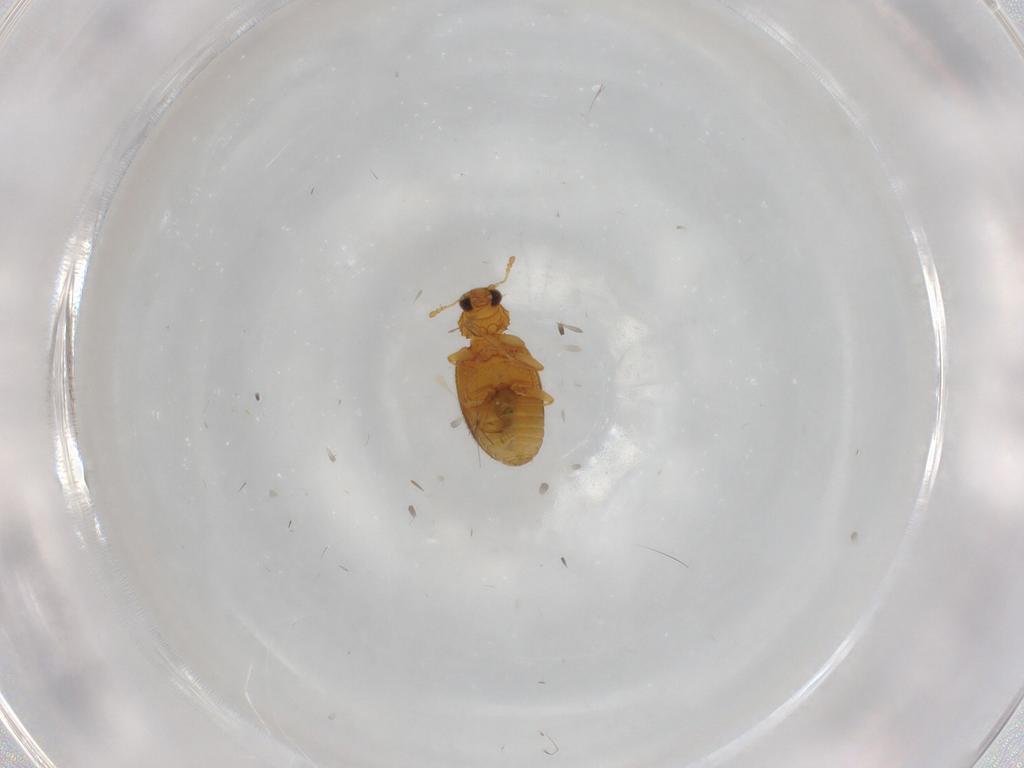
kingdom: Animalia
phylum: Arthropoda
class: Insecta
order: Coleoptera
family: Latridiidae
